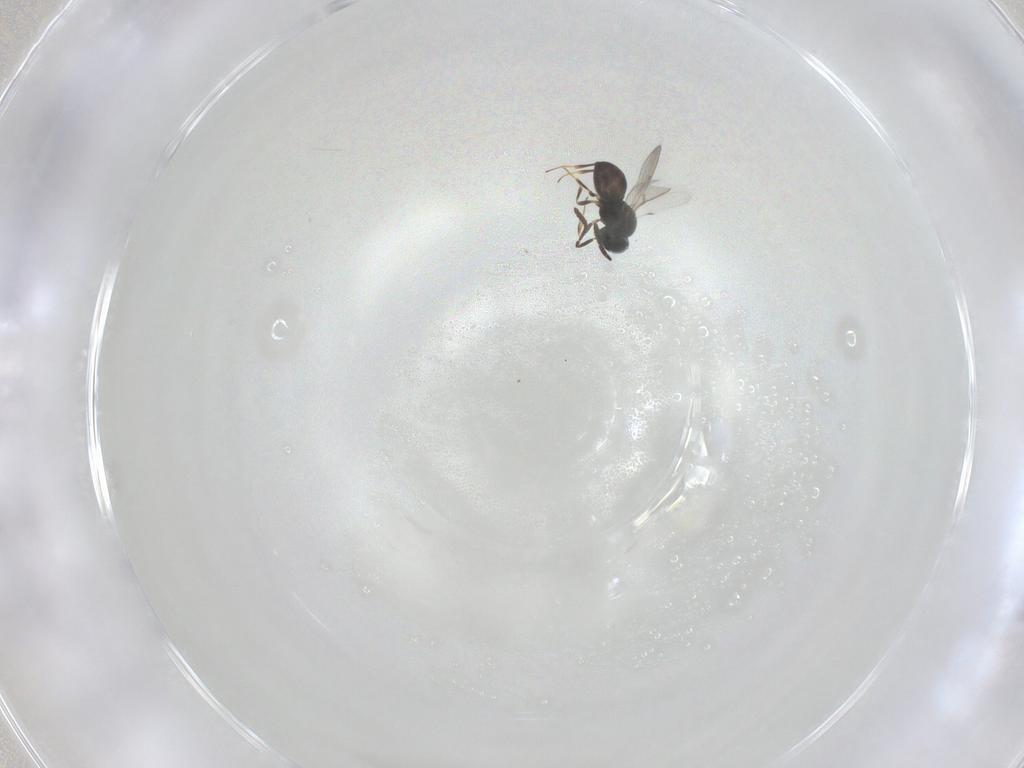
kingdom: Animalia
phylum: Arthropoda
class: Insecta
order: Hymenoptera
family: Scelionidae
